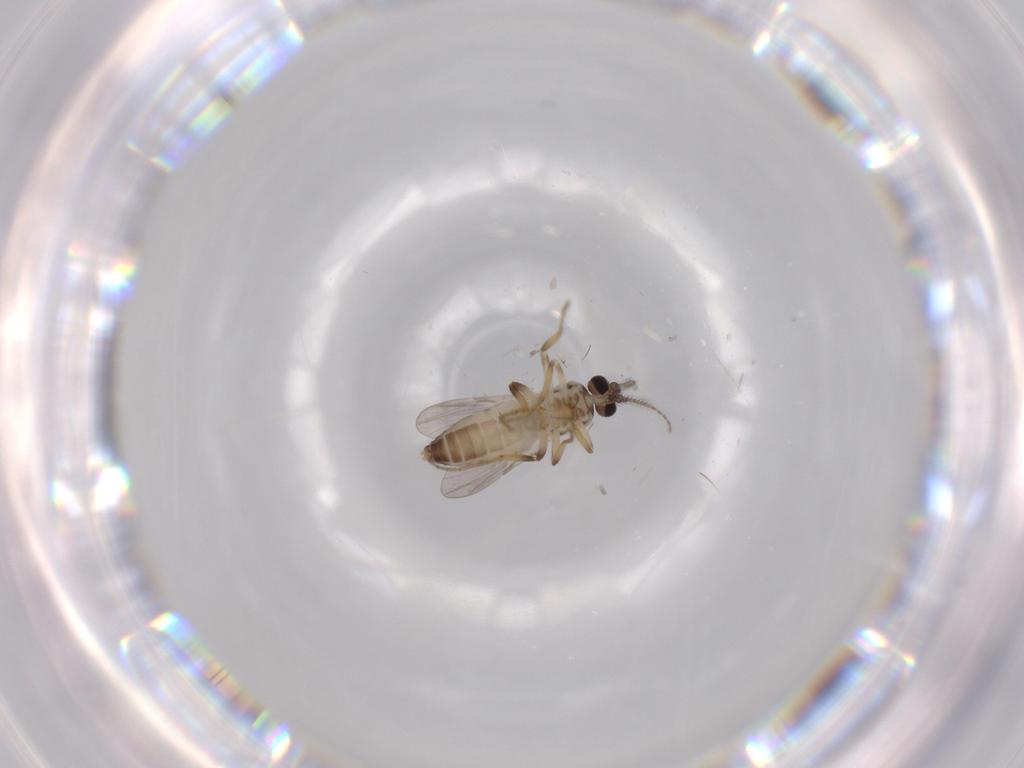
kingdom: Animalia
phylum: Arthropoda
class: Insecta
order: Diptera
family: Ceratopogonidae
